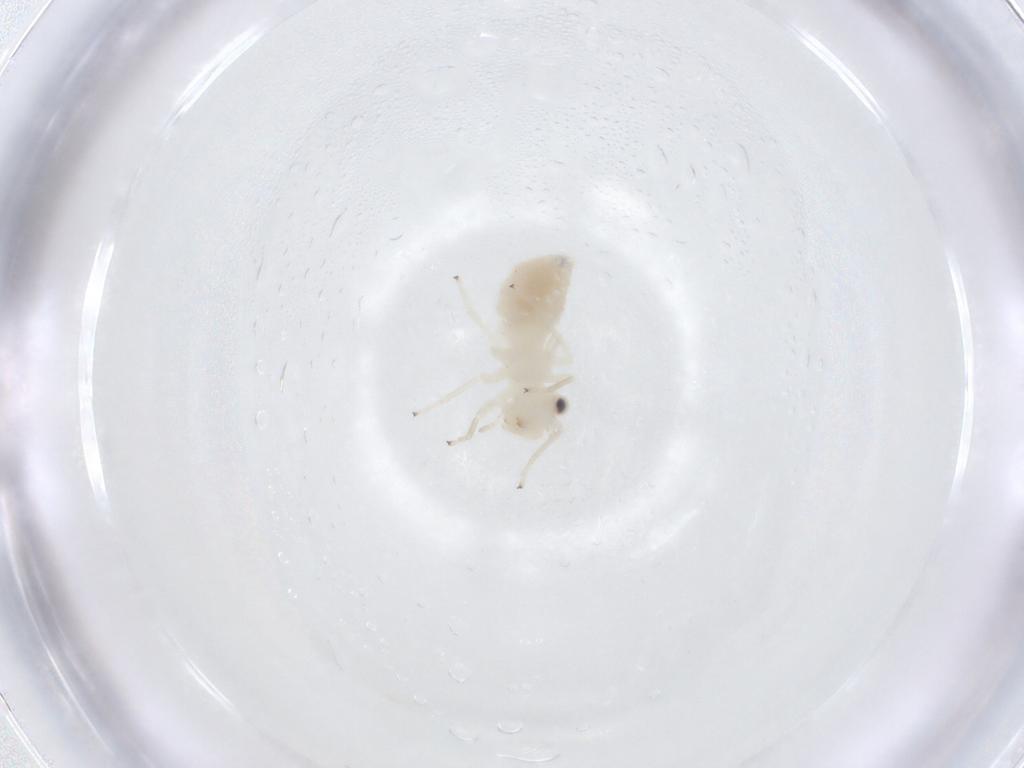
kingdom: Animalia
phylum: Arthropoda
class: Insecta
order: Psocodea
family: Caeciliusidae
